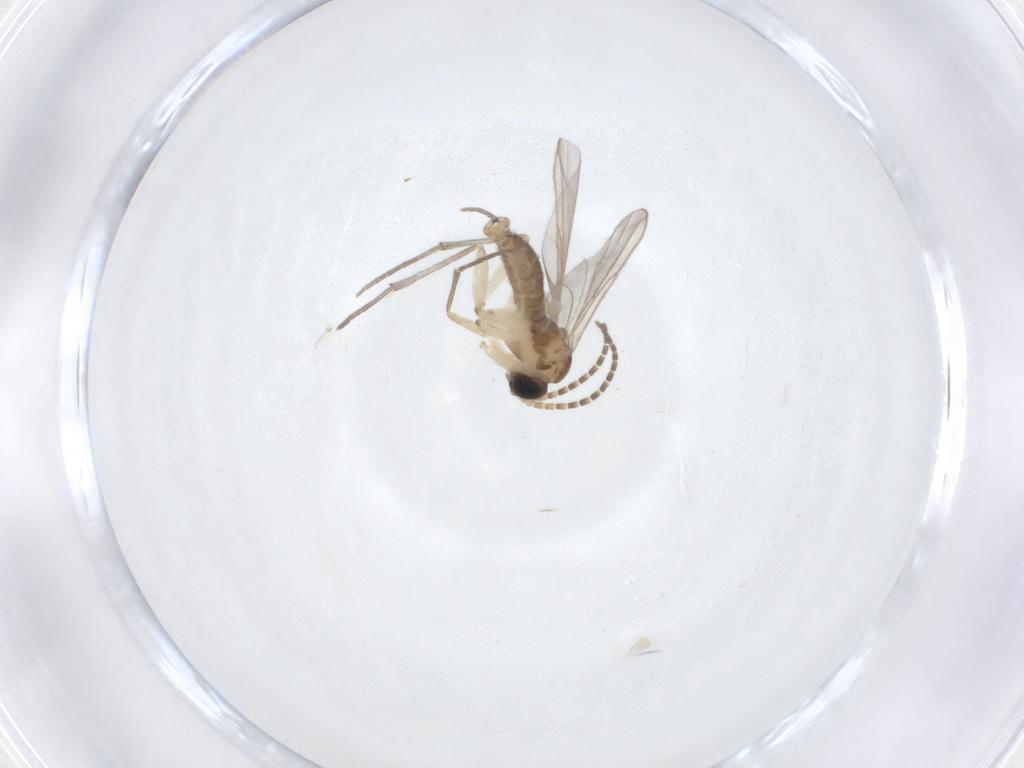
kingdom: Animalia
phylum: Arthropoda
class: Insecta
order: Diptera
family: Sciaridae
